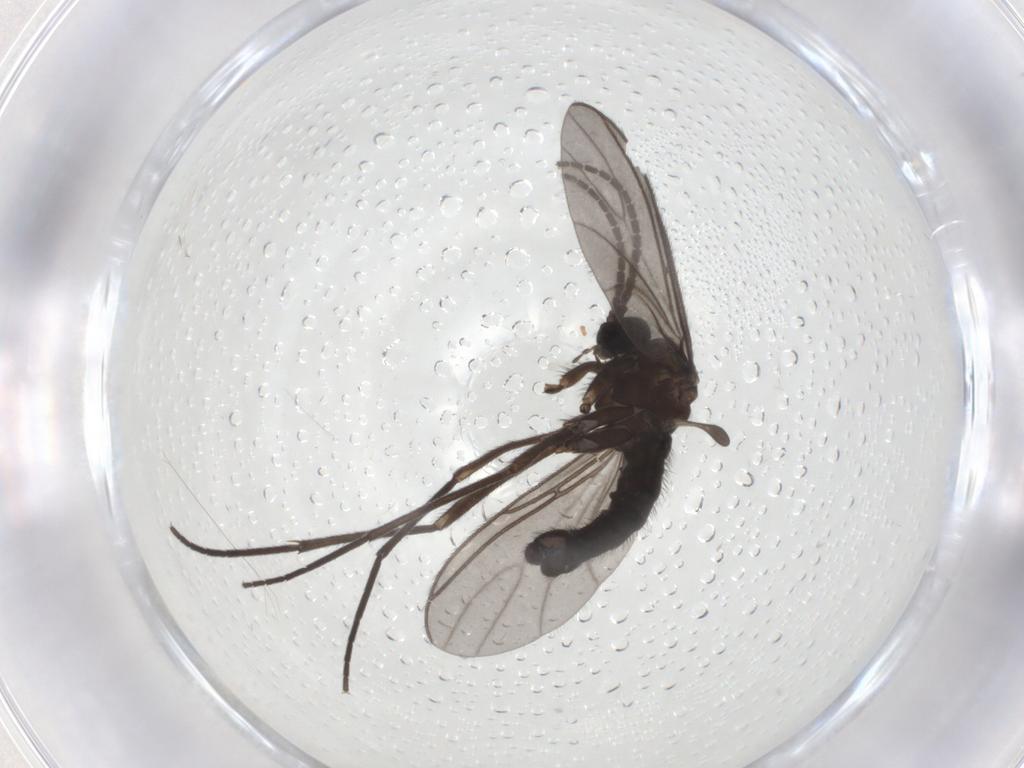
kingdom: Animalia
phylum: Arthropoda
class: Insecta
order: Diptera
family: Sciaridae
